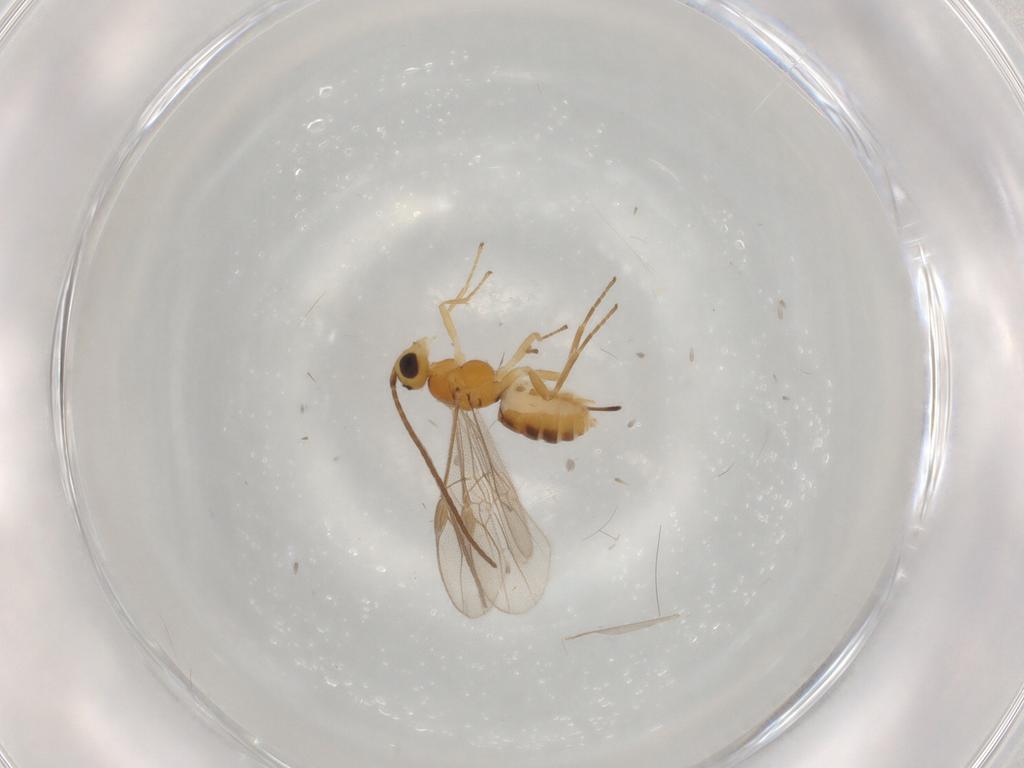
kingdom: Animalia
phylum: Arthropoda
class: Insecta
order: Hymenoptera
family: Braconidae
